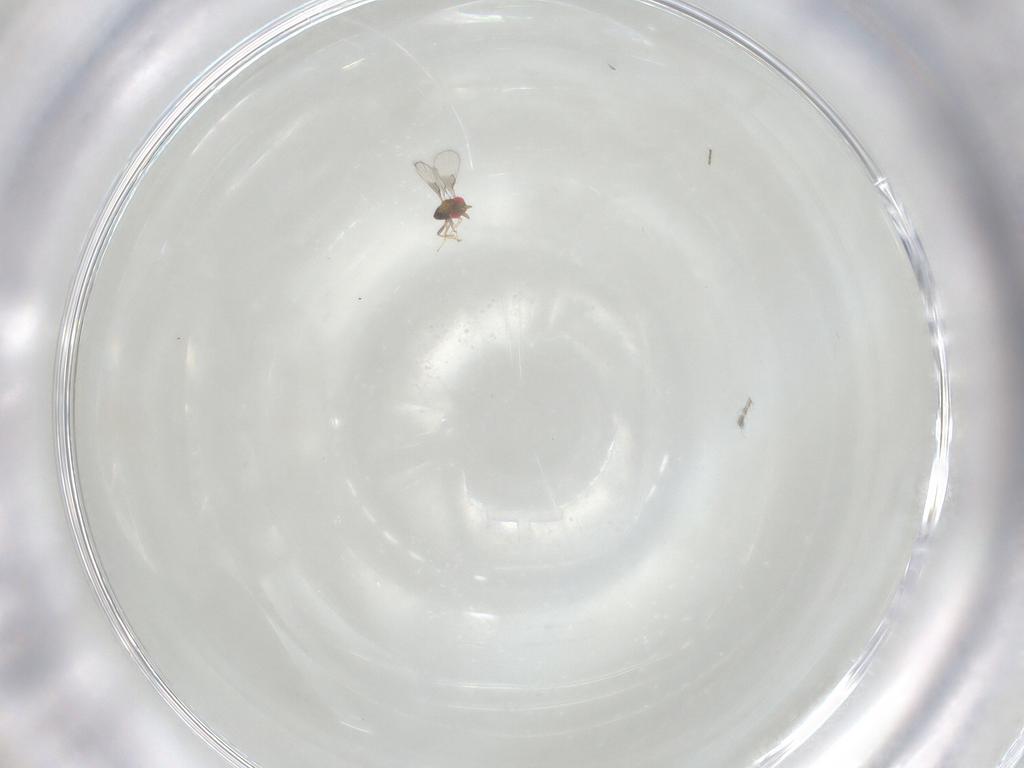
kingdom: Animalia
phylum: Arthropoda
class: Insecta
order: Hymenoptera
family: Trichogrammatidae
